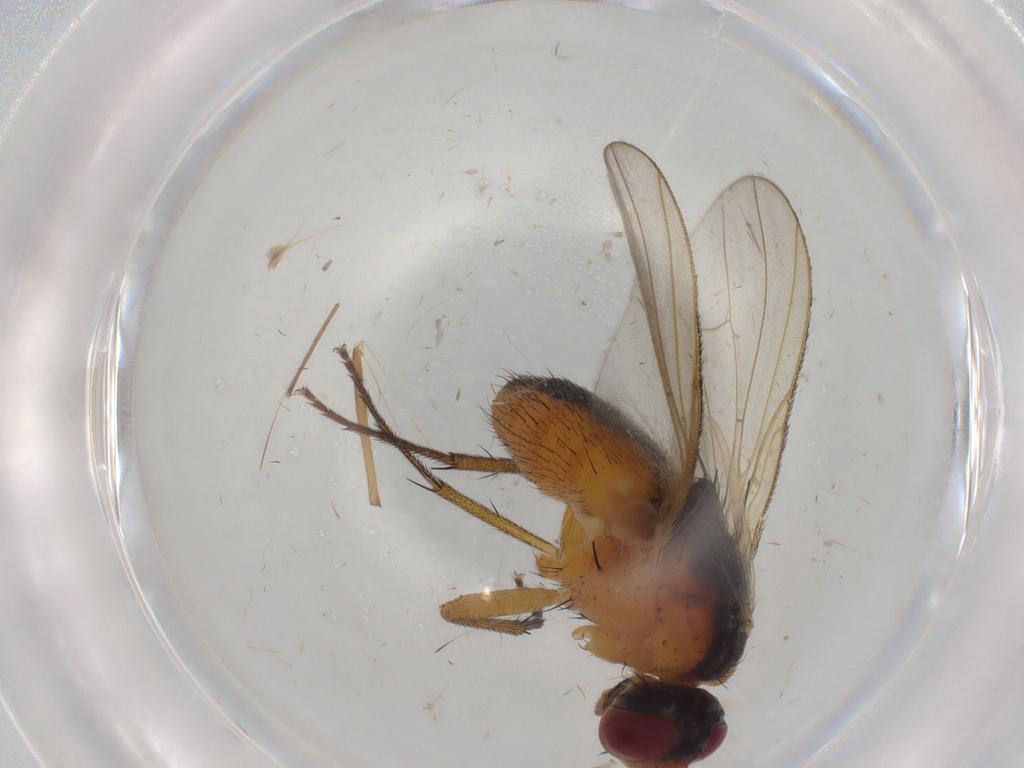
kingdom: Animalia
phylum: Arthropoda
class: Insecta
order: Diptera
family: Muscidae
